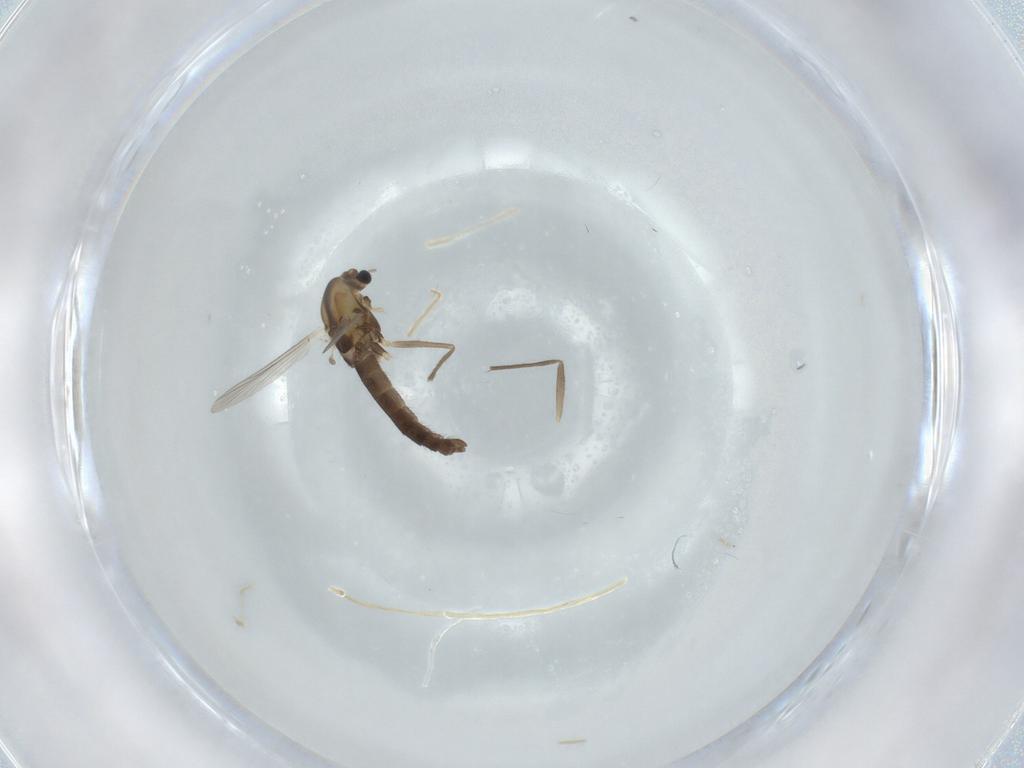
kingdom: Animalia
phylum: Arthropoda
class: Insecta
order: Diptera
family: Chironomidae
